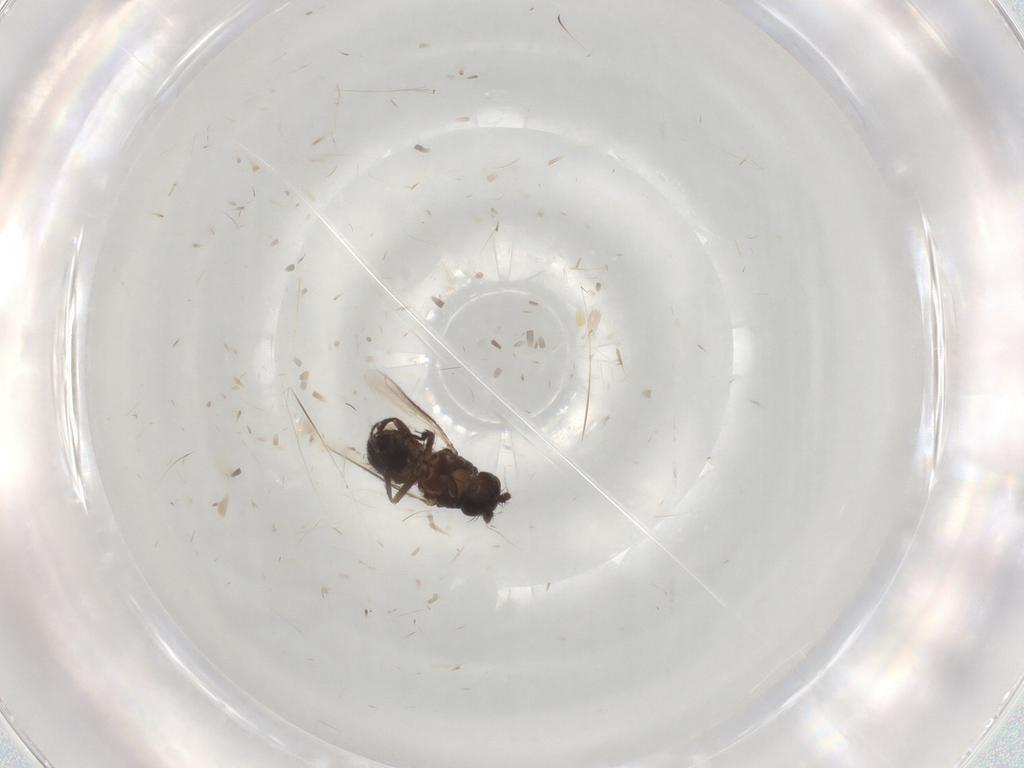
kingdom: Animalia
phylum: Arthropoda
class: Insecta
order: Diptera
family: Sphaeroceridae
